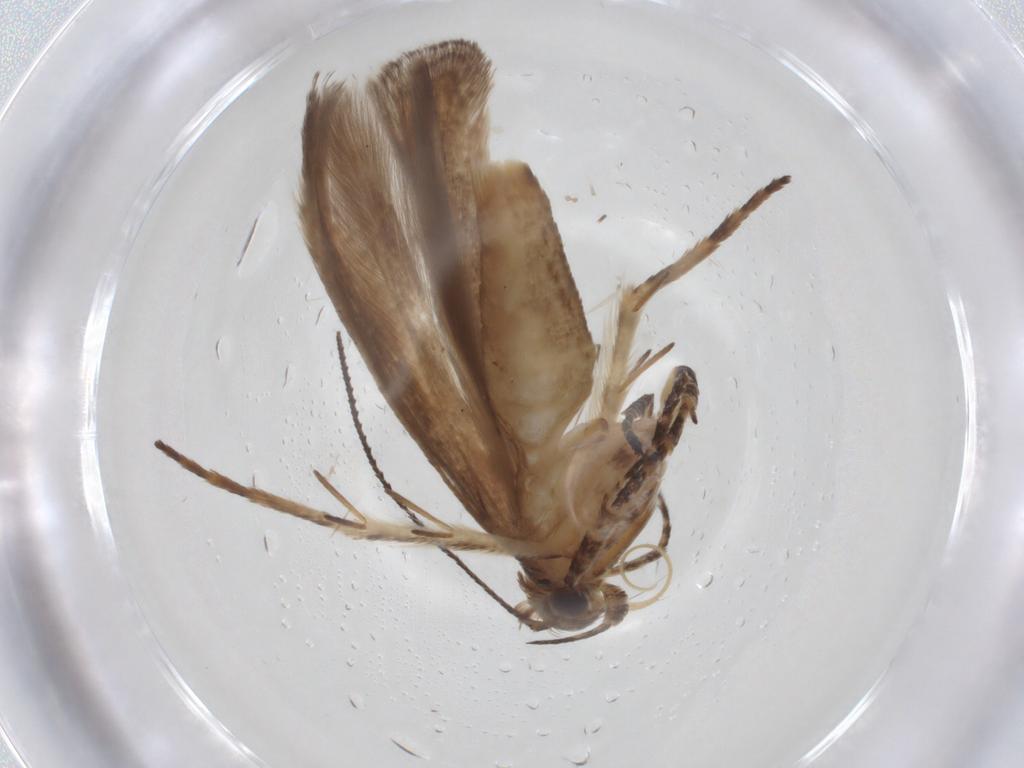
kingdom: Animalia
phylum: Arthropoda
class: Insecta
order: Lepidoptera
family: Gelechiidae
